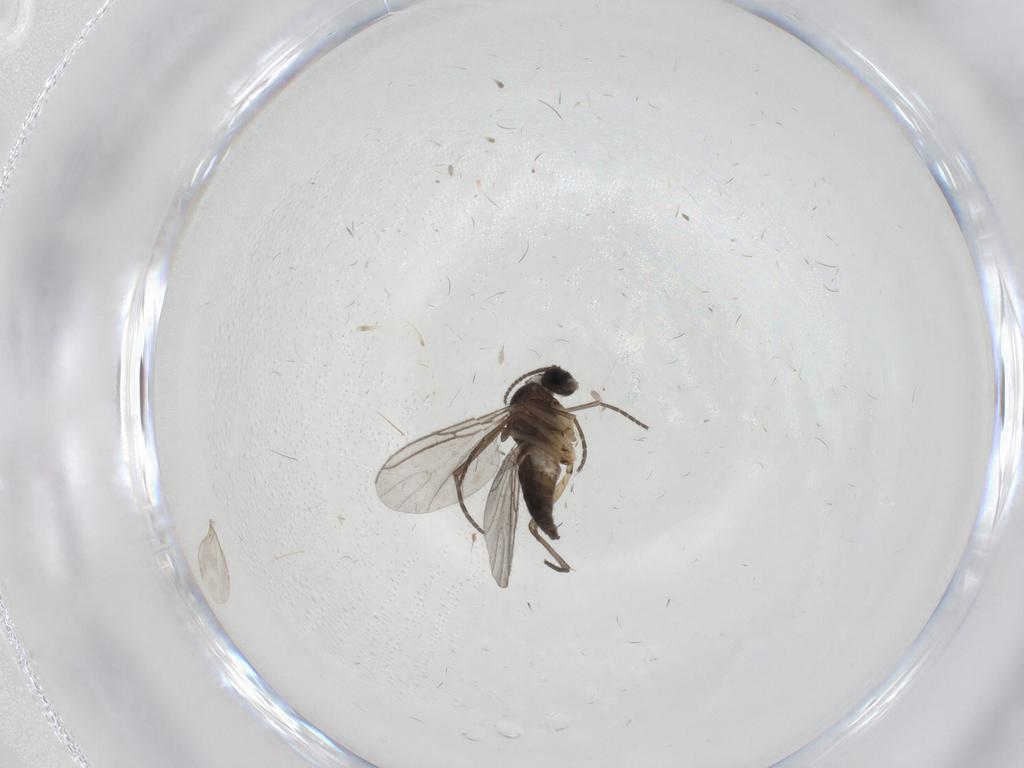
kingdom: Animalia
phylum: Arthropoda
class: Insecta
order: Diptera
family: Sciaridae
